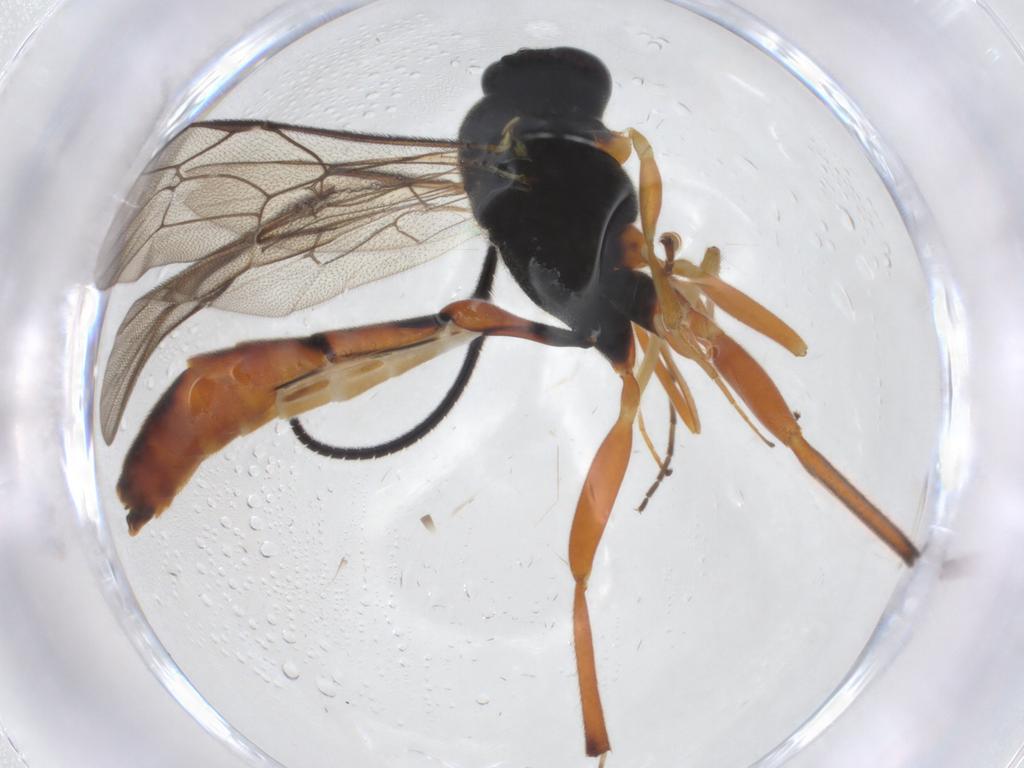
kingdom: Animalia
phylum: Arthropoda
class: Insecta
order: Hymenoptera
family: Ichneumonidae
